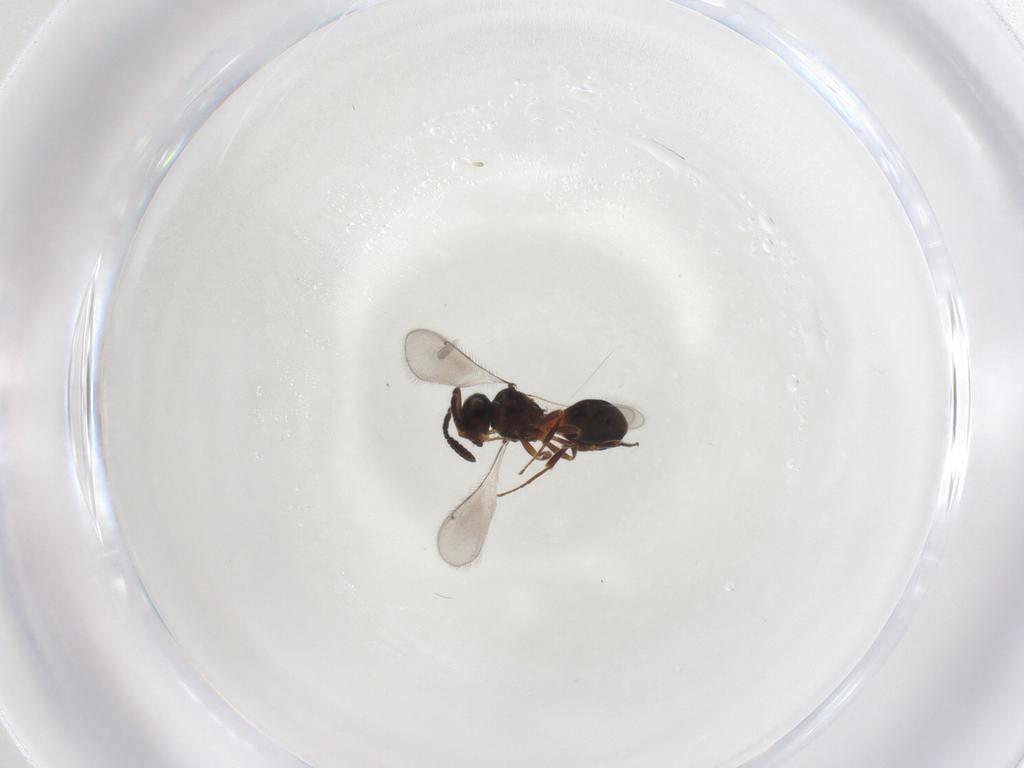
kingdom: Animalia
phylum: Arthropoda
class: Insecta
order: Hymenoptera
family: Scelionidae
